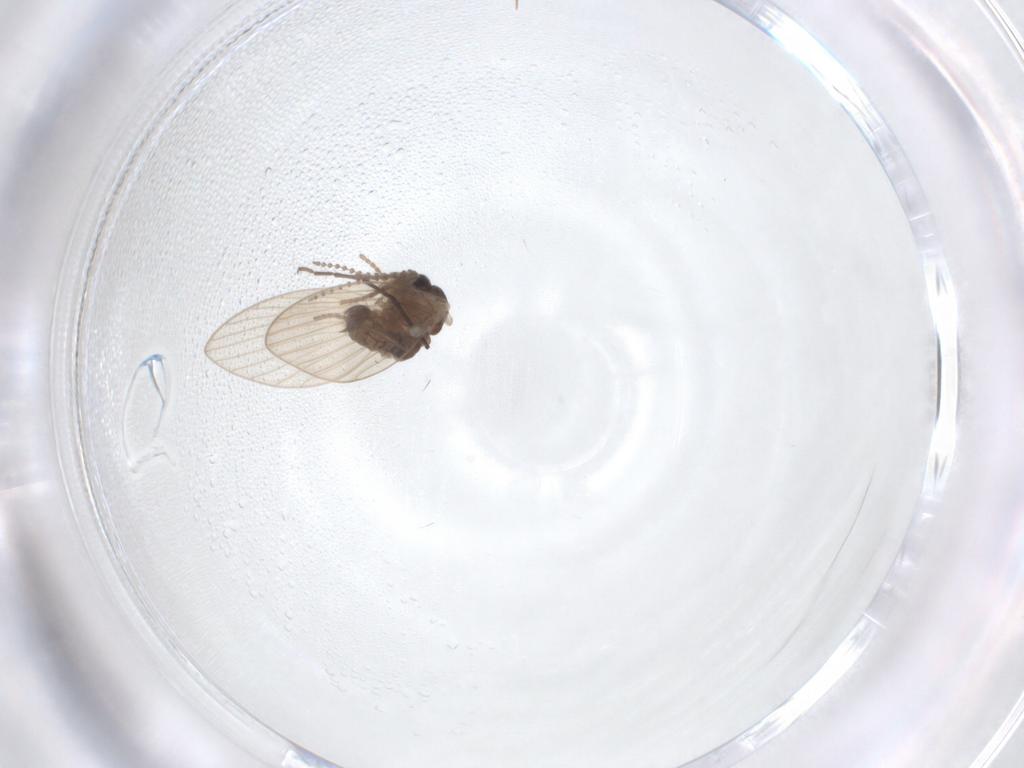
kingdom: Animalia
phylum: Arthropoda
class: Insecta
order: Diptera
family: Psychodidae
